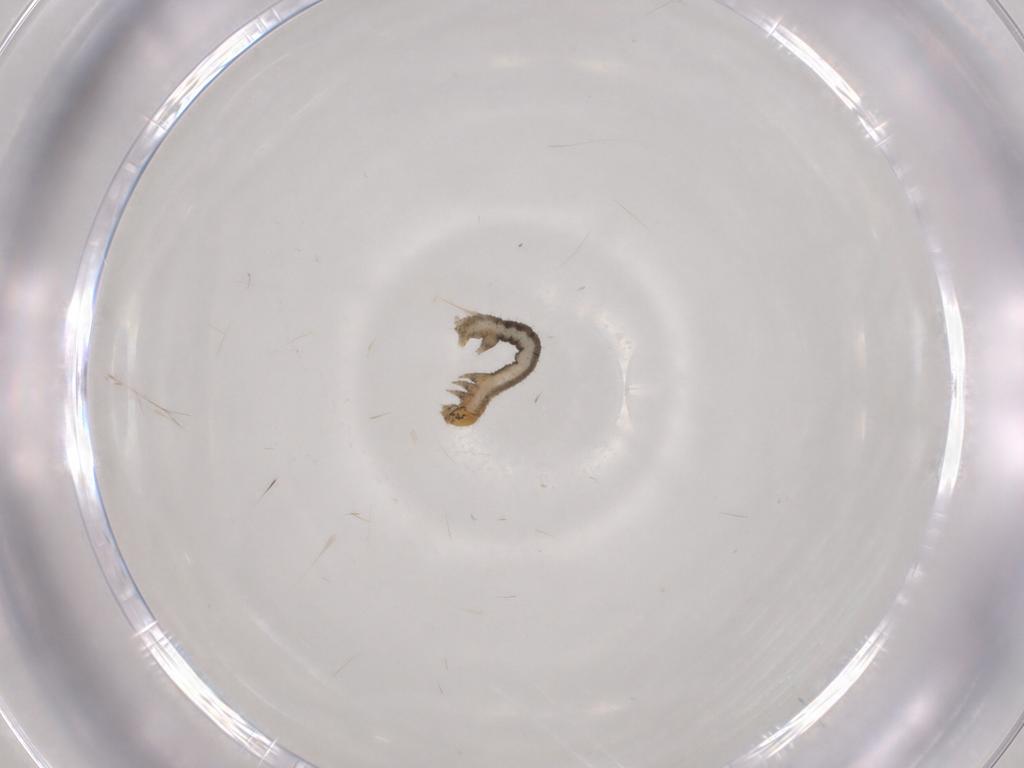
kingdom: Animalia
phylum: Arthropoda
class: Insecta
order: Lepidoptera
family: Geometridae
